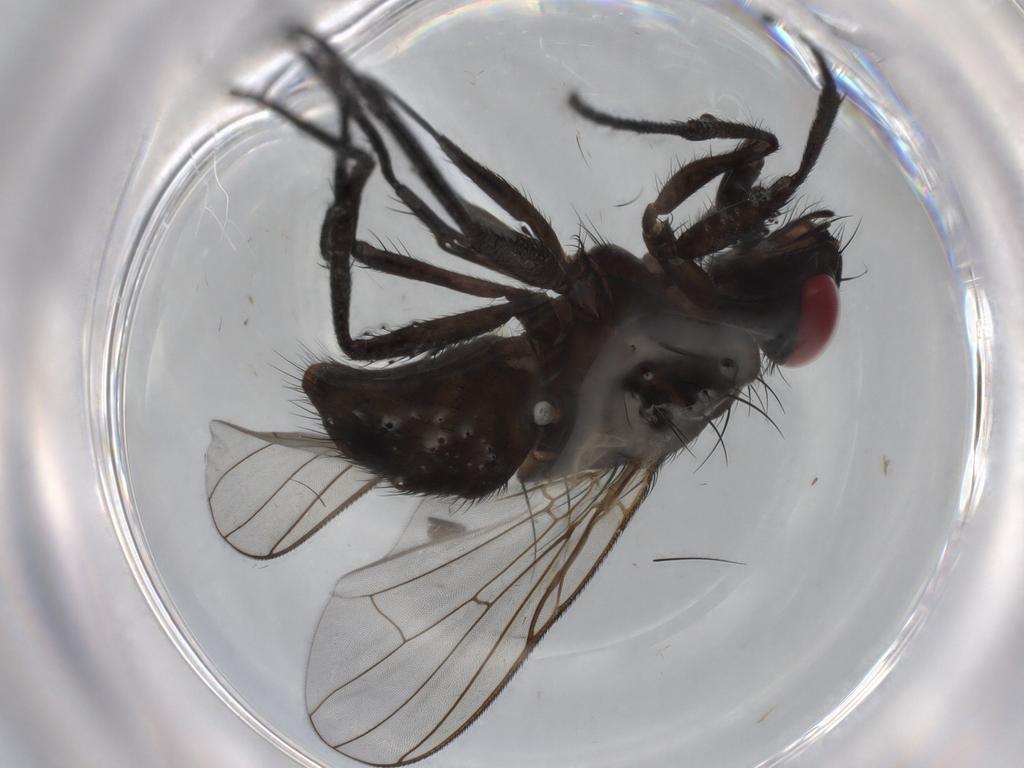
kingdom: Animalia
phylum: Arthropoda
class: Insecta
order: Diptera
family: Muscidae
